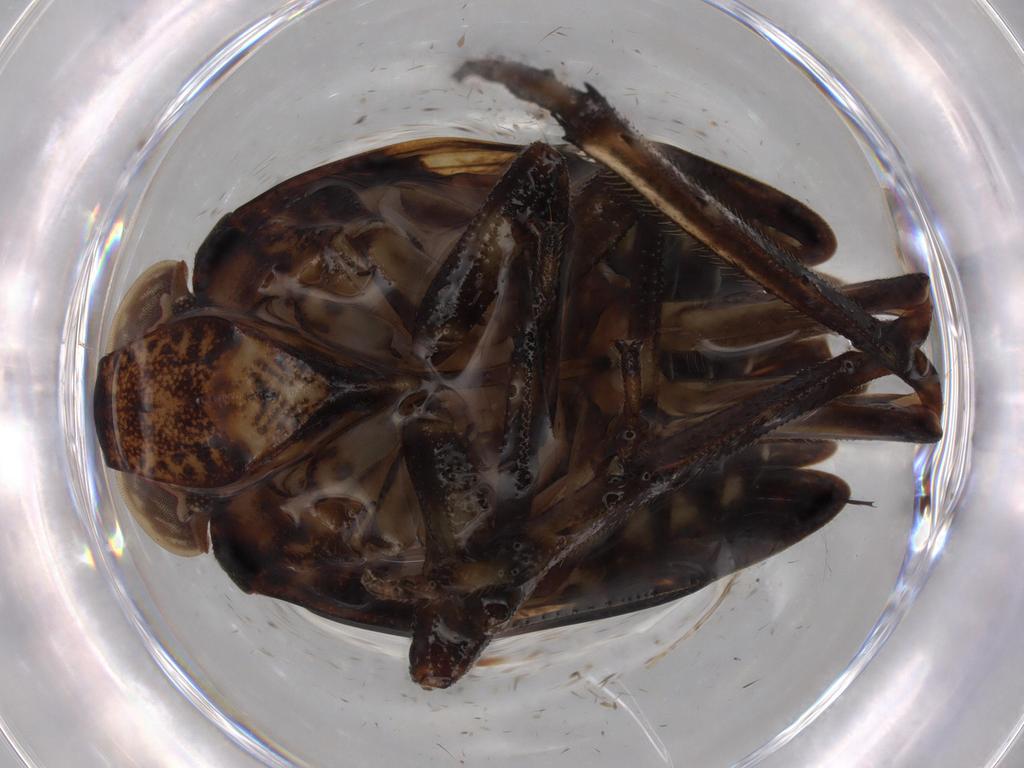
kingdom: Animalia
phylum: Arthropoda
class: Insecta
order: Hemiptera
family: Issidae
